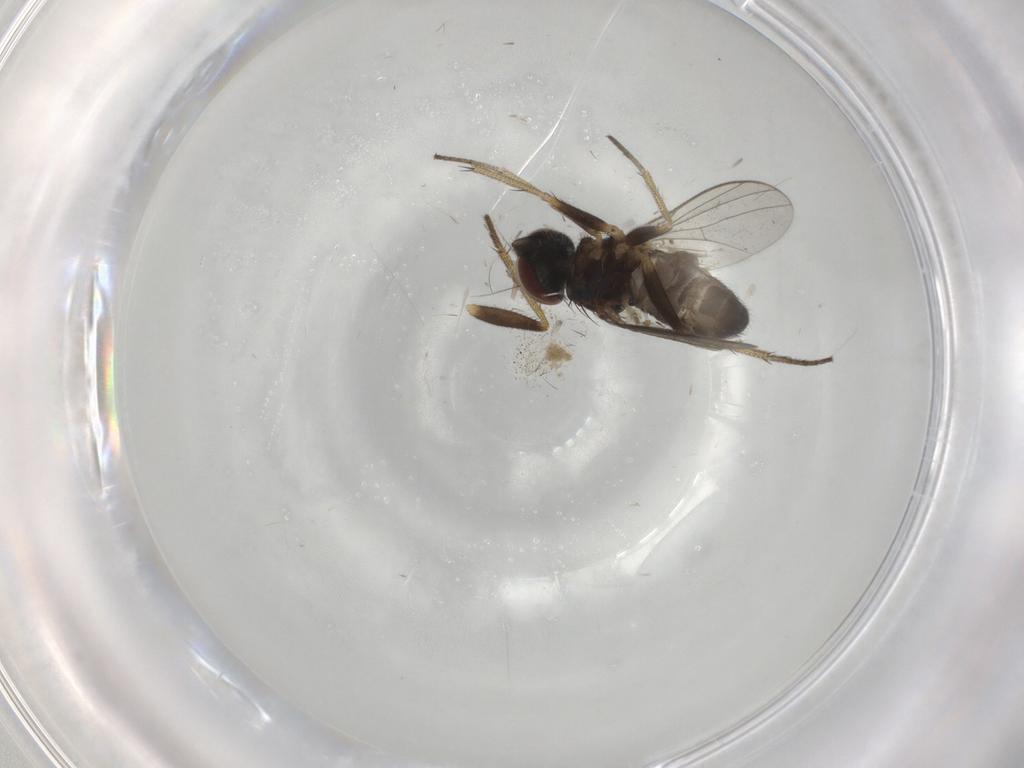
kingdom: Animalia
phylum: Arthropoda
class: Insecta
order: Diptera
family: Dolichopodidae
